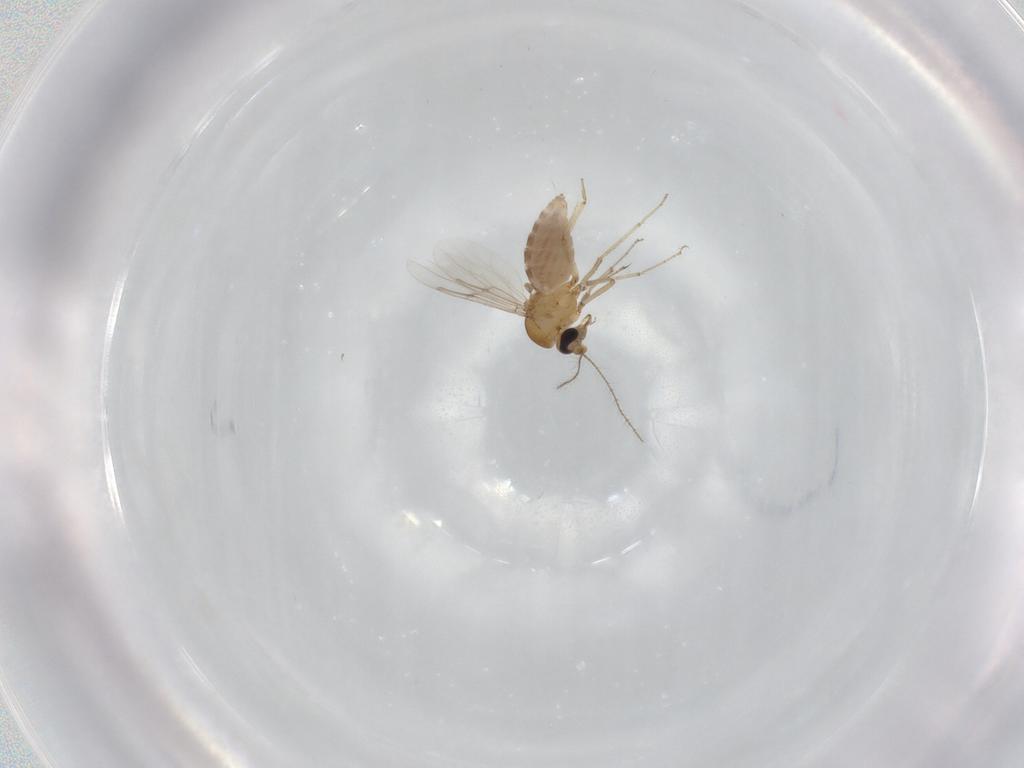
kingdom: Animalia
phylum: Arthropoda
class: Insecta
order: Diptera
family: Ceratopogonidae
